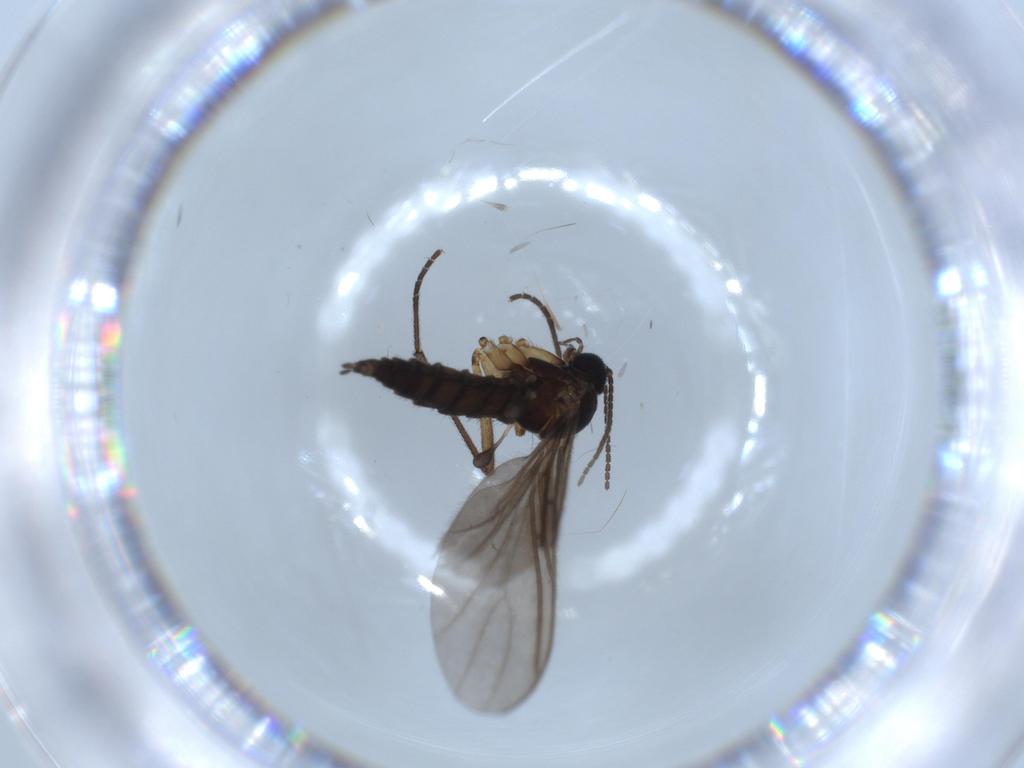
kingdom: Animalia
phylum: Arthropoda
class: Insecta
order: Diptera
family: Sciaridae
